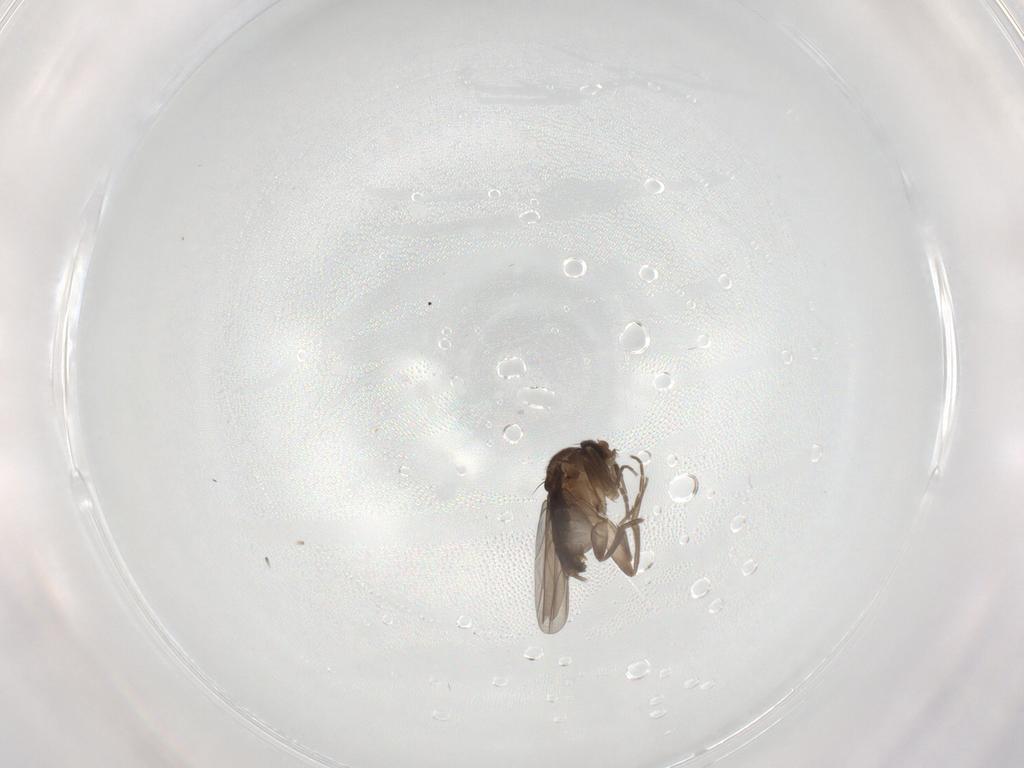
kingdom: Animalia
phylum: Arthropoda
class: Insecta
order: Diptera
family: Phoridae
